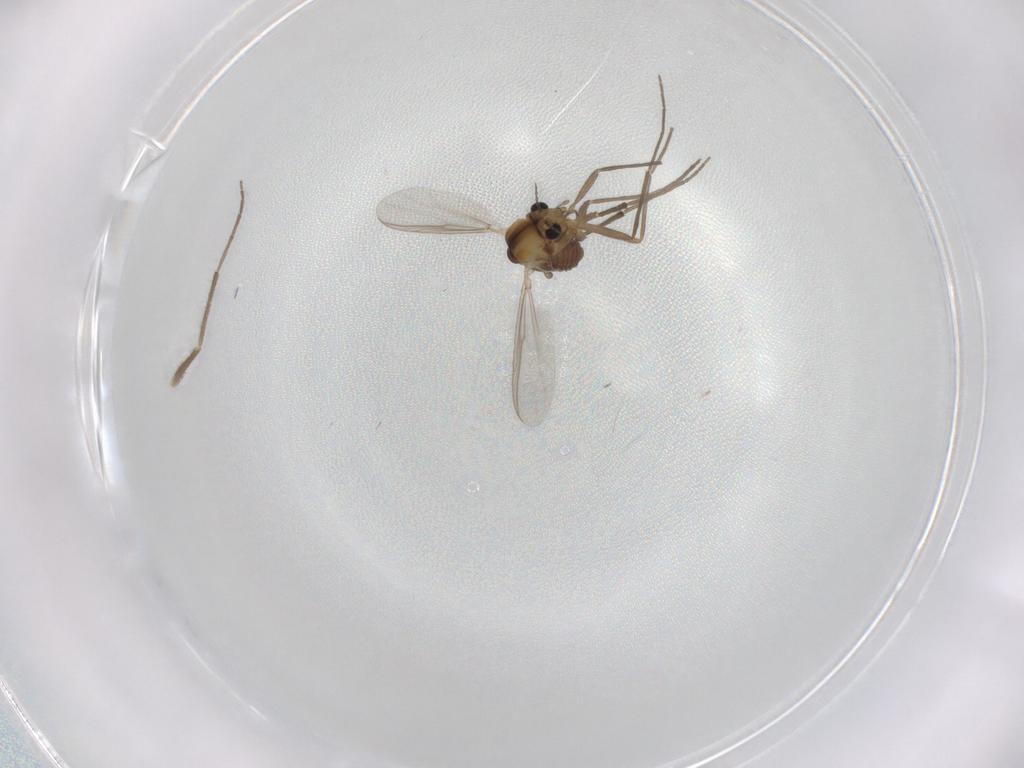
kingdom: Animalia
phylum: Arthropoda
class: Insecta
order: Diptera
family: Chironomidae
